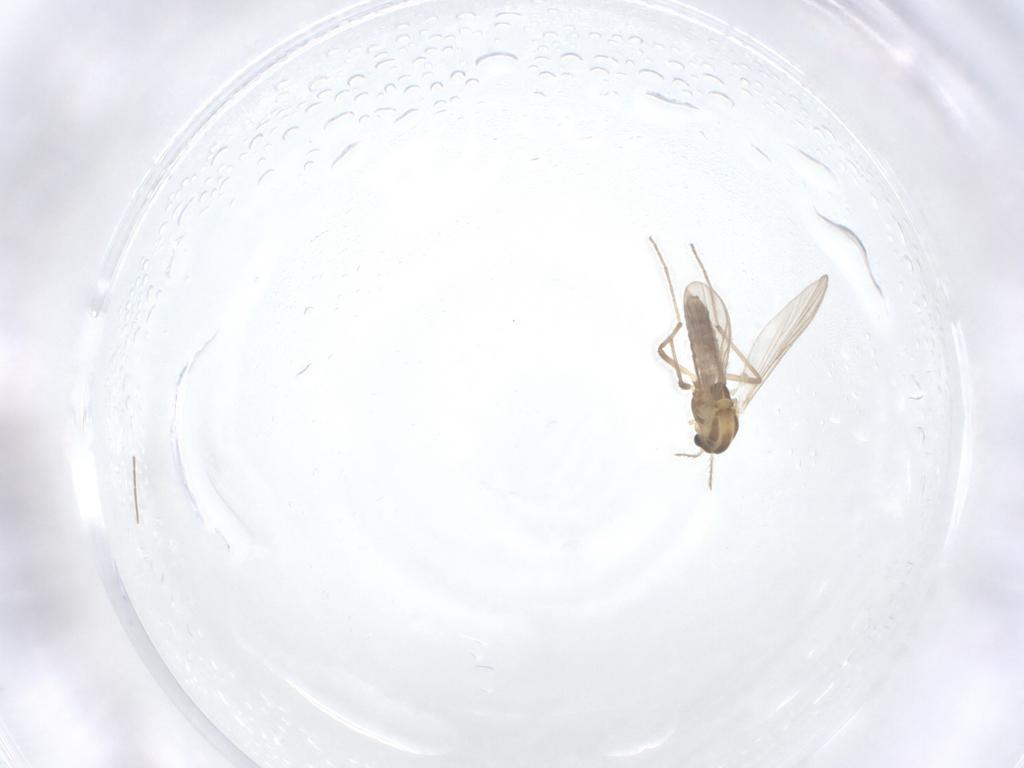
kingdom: Animalia
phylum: Arthropoda
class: Insecta
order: Diptera
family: Chironomidae
